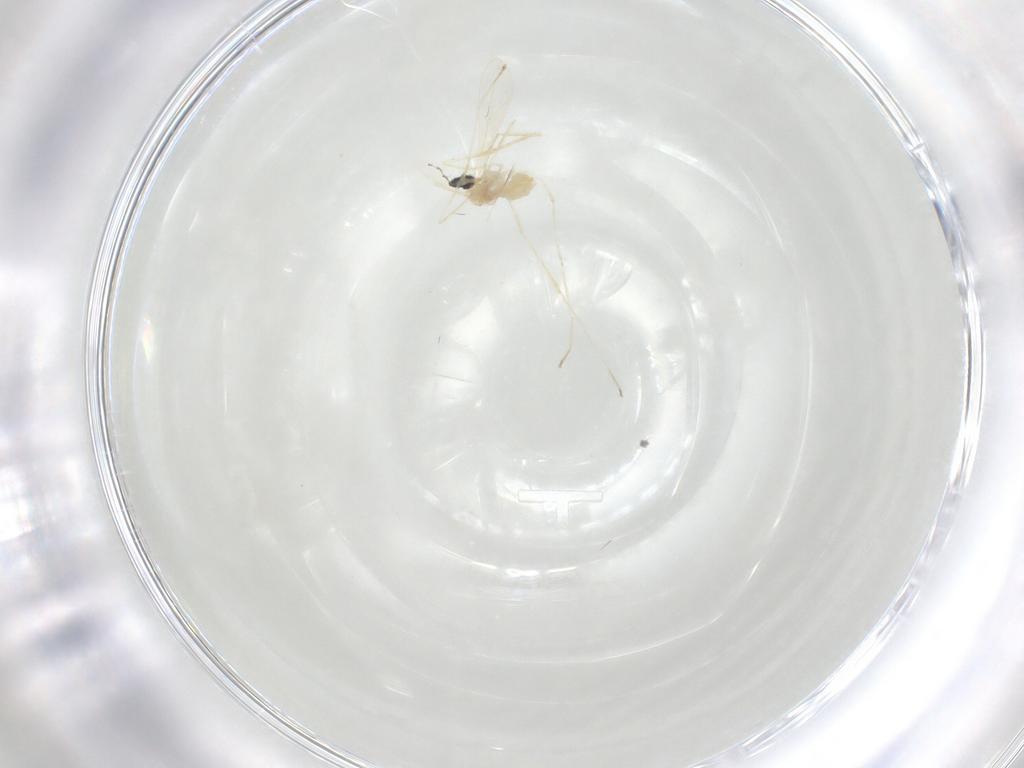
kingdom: Animalia
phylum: Arthropoda
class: Insecta
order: Diptera
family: Cecidomyiidae
